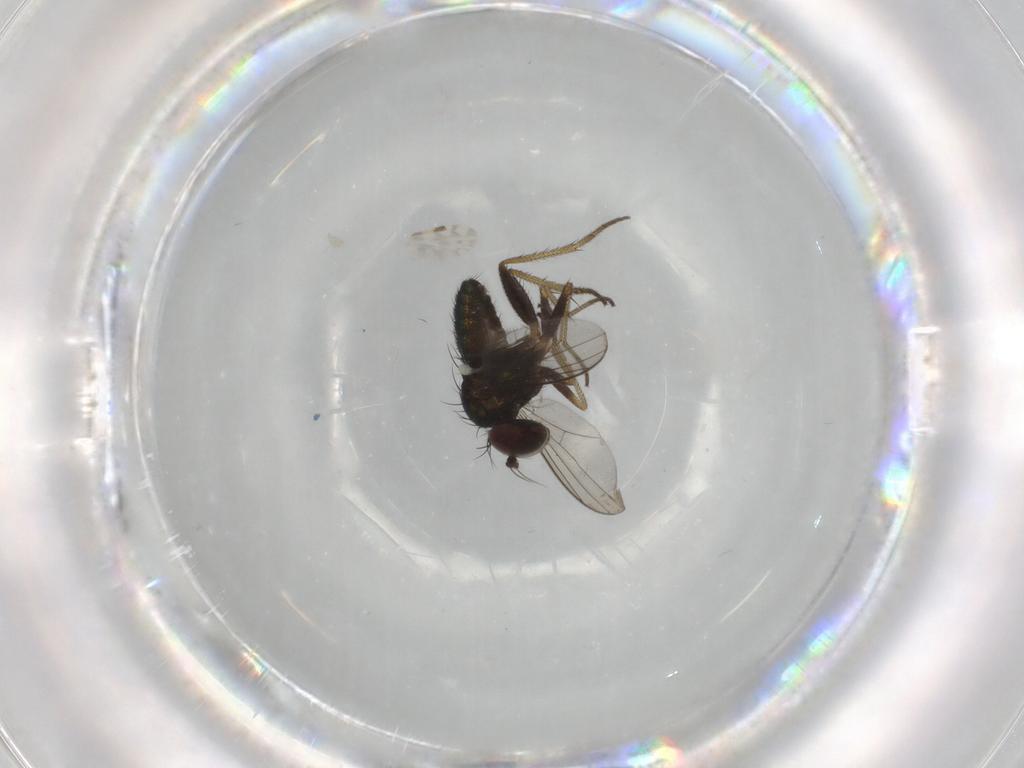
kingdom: Animalia
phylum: Arthropoda
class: Insecta
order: Diptera
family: Dolichopodidae
